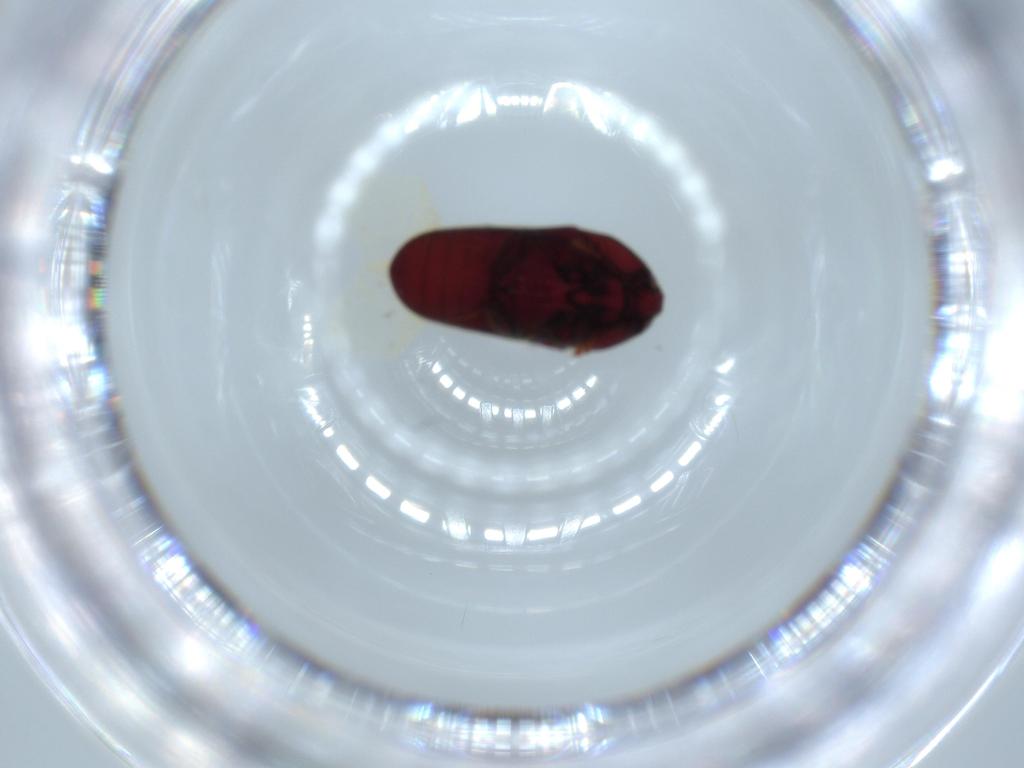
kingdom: Animalia
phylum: Arthropoda
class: Insecta
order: Coleoptera
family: Throscidae
